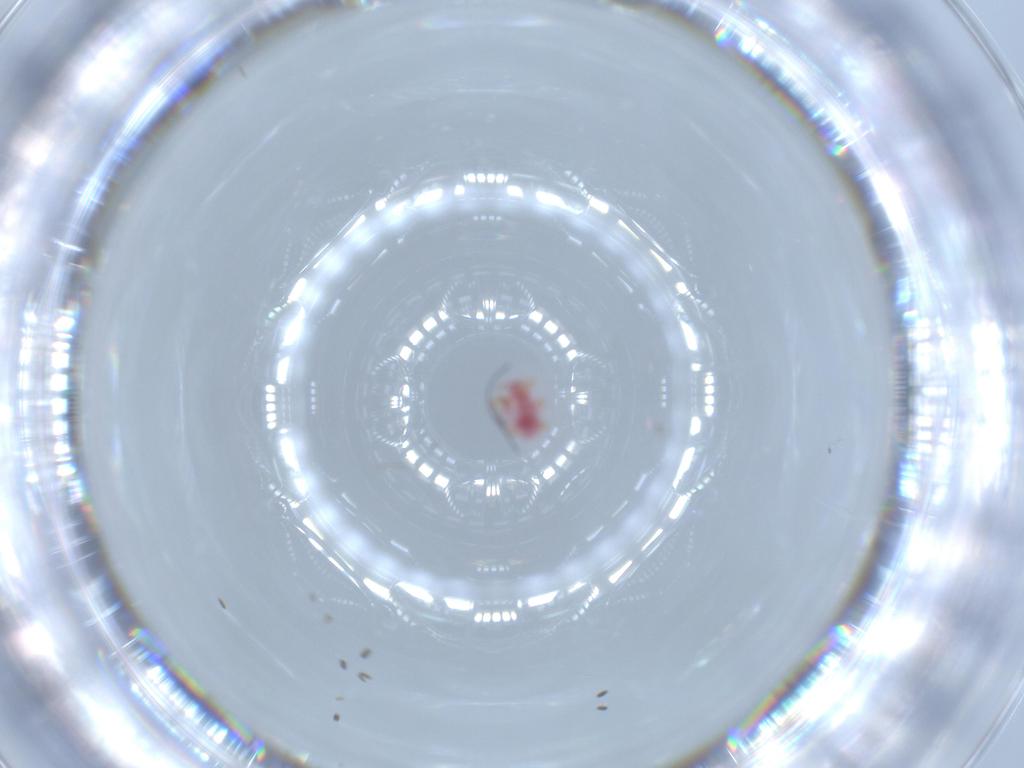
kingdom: Animalia
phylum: Arthropoda
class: Insecta
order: Hemiptera
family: Pseudococcidae
